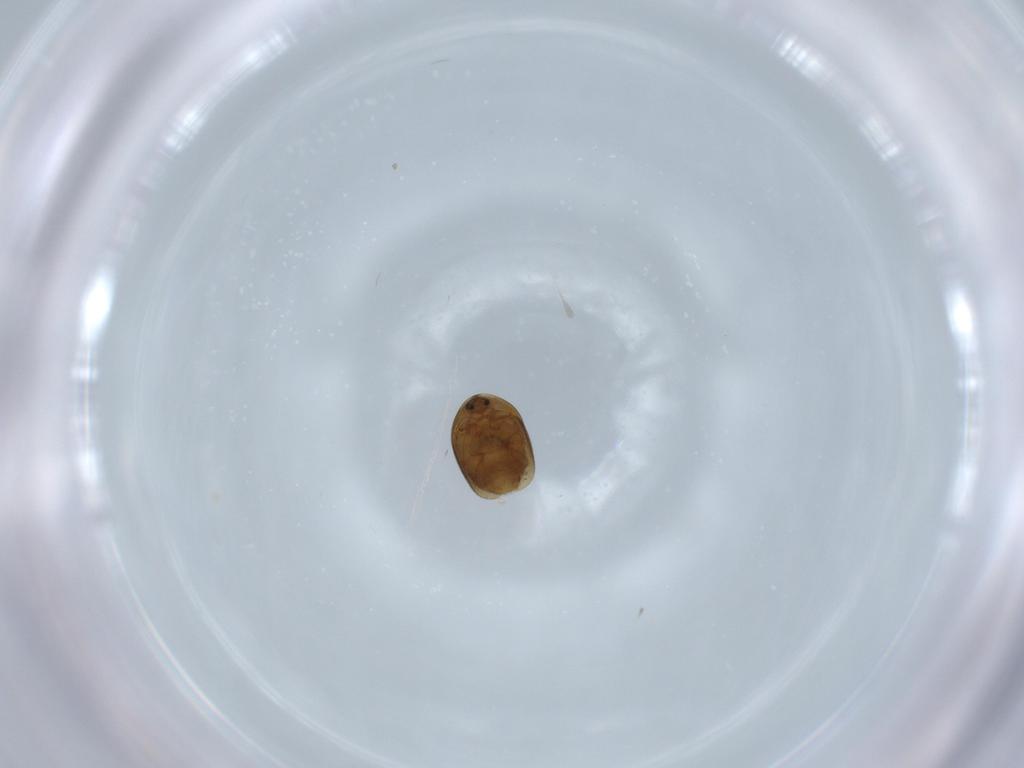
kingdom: Animalia
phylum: Arthropoda
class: Insecta
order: Coleoptera
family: Corylophidae
